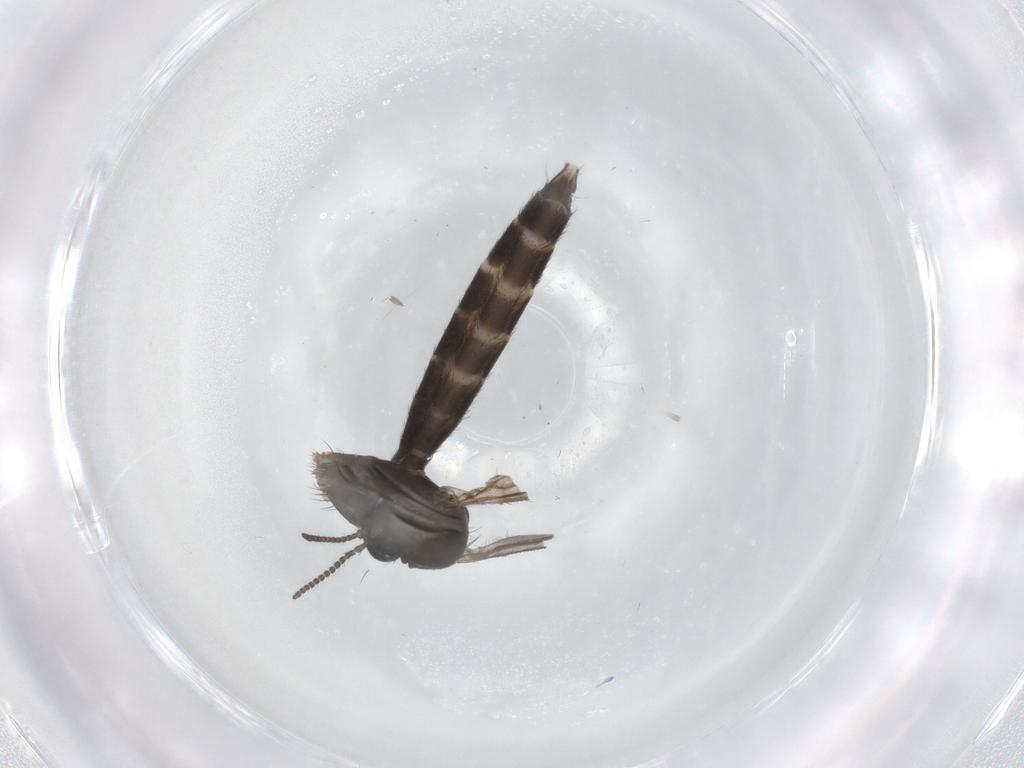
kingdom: Animalia
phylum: Arthropoda
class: Insecta
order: Diptera
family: Ditomyiidae
